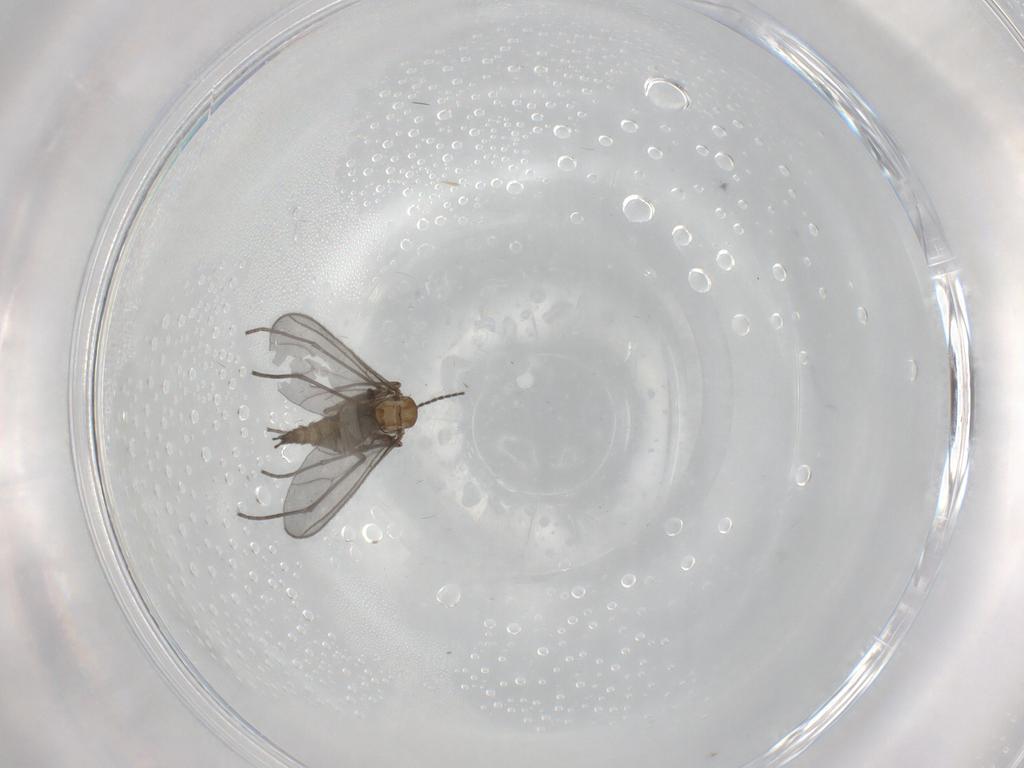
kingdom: Animalia
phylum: Arthropoda
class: Insecta
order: Diptera
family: Sciaridae
